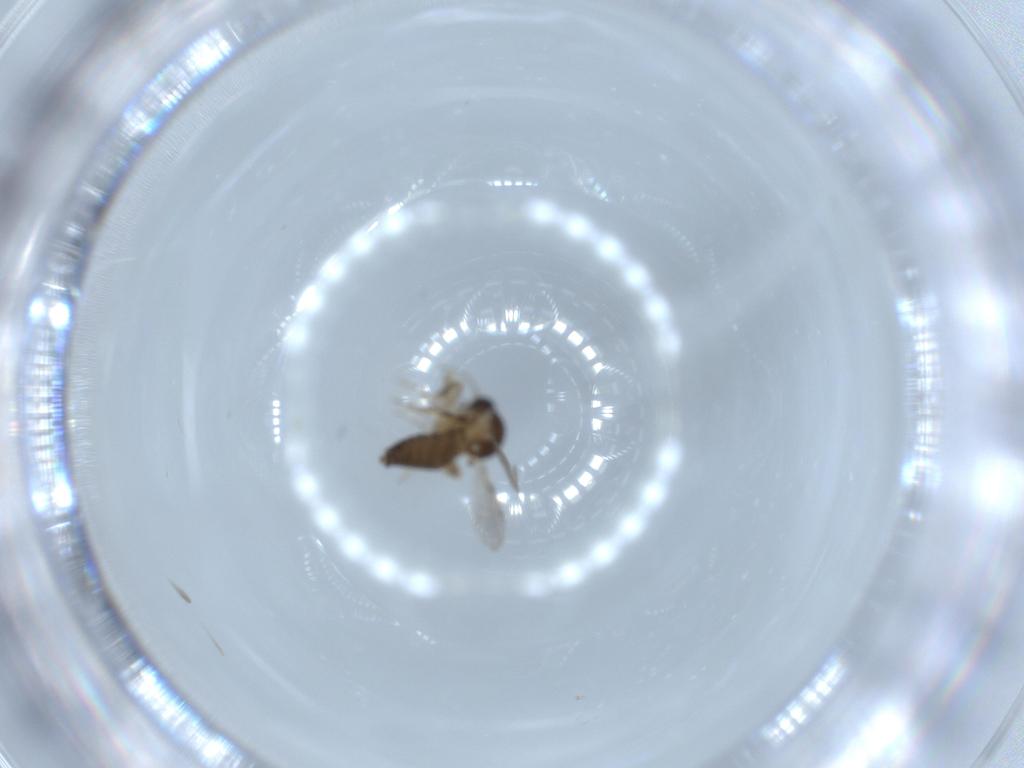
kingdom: Animalia
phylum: Arthropoda
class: Insecta
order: Diptera
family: Ceratopogonidae
